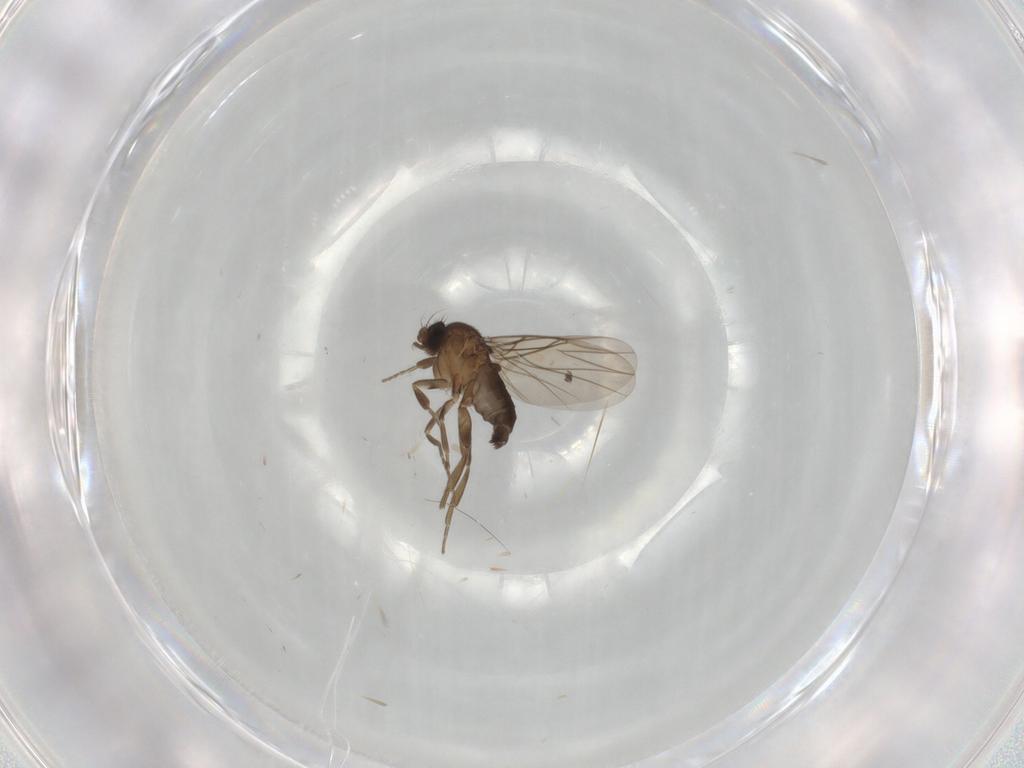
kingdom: Animalia
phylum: Arthropoda
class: Insecta
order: Diptera
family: Phoridae
